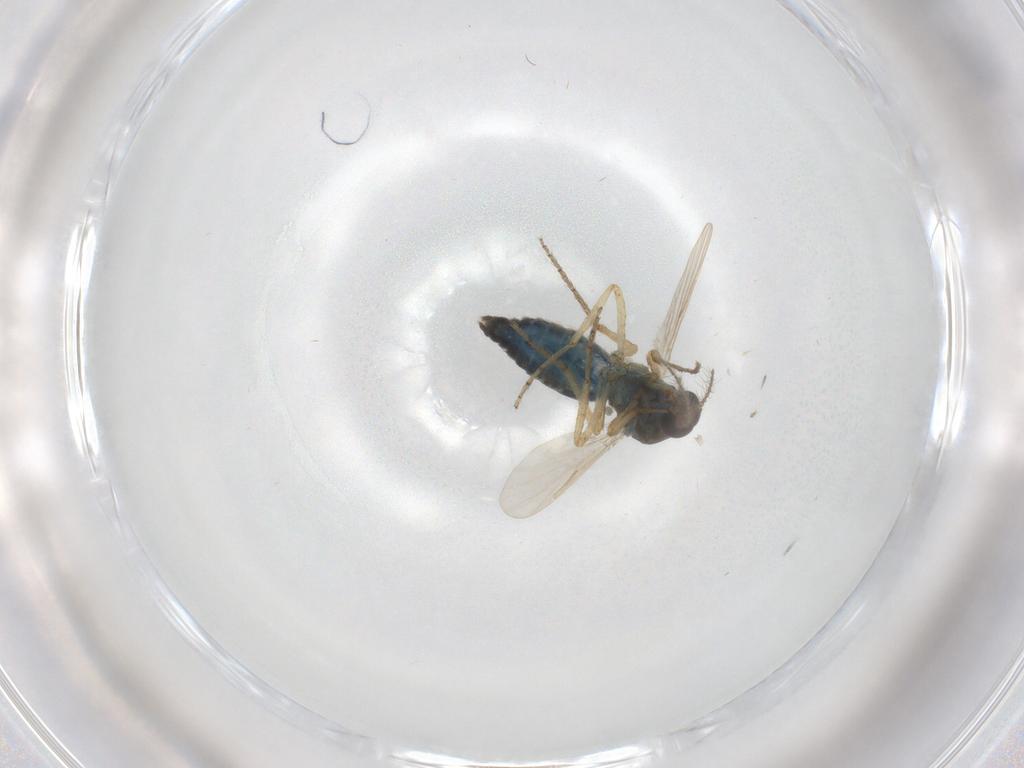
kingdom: Animalia
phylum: Arthropoda
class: Insecta
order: Diptera
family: Ceratopogonidae
